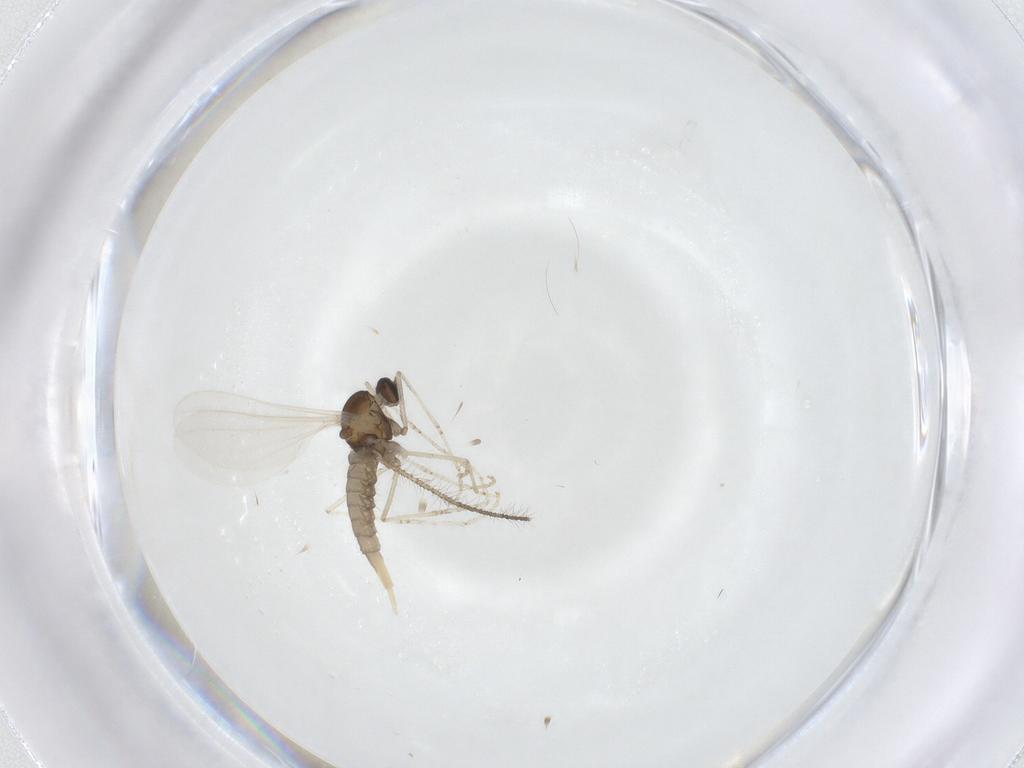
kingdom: Animalia
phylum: Arthropoda
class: Insecta
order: Diptera
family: Cecidomyiidae
